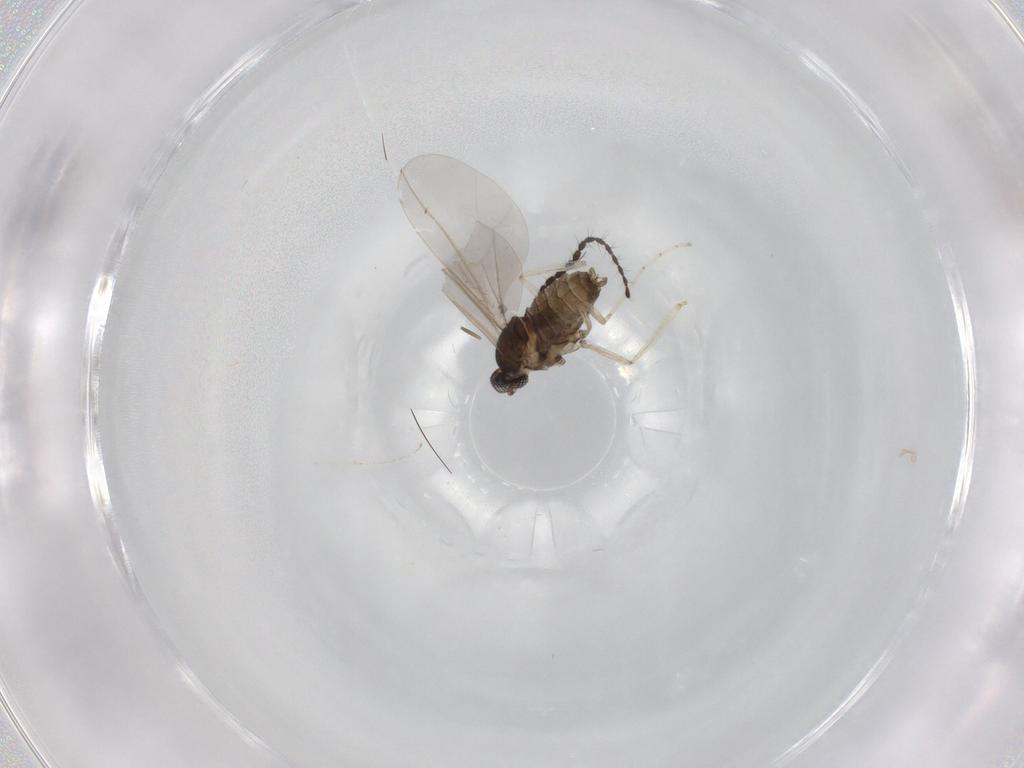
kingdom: Animalia
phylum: Arthropoda
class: Insecta
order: Diptera
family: Limoniidae
